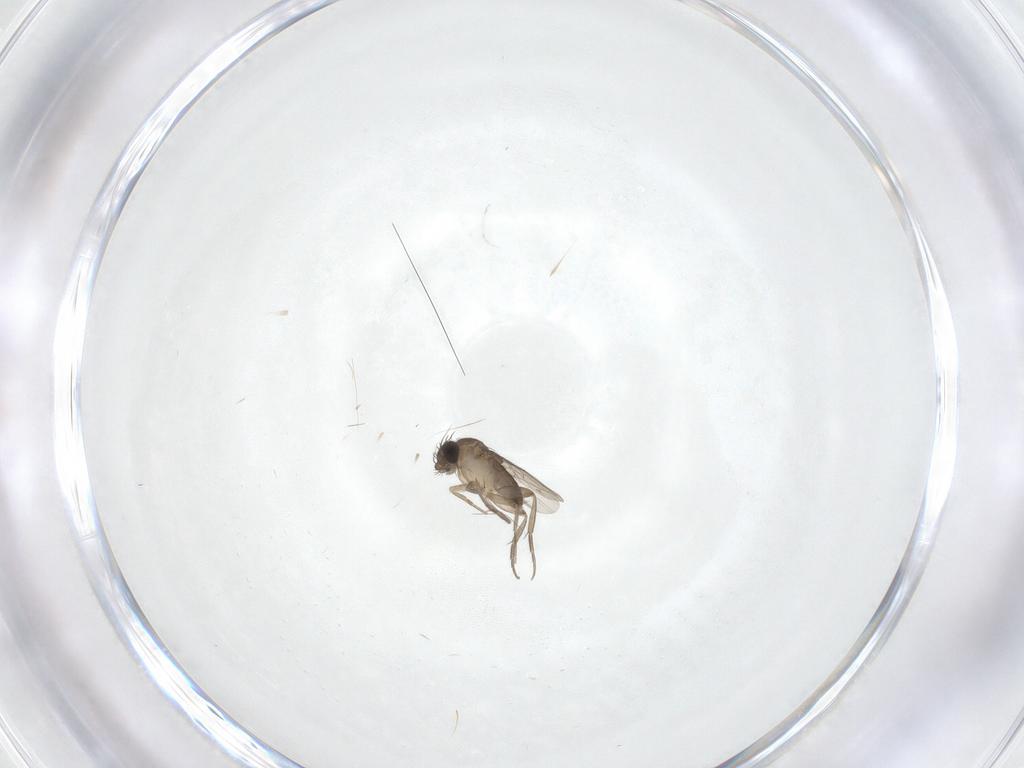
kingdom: Animalia
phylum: Arthropoda
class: Insecta
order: Diptera
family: Phoridae
